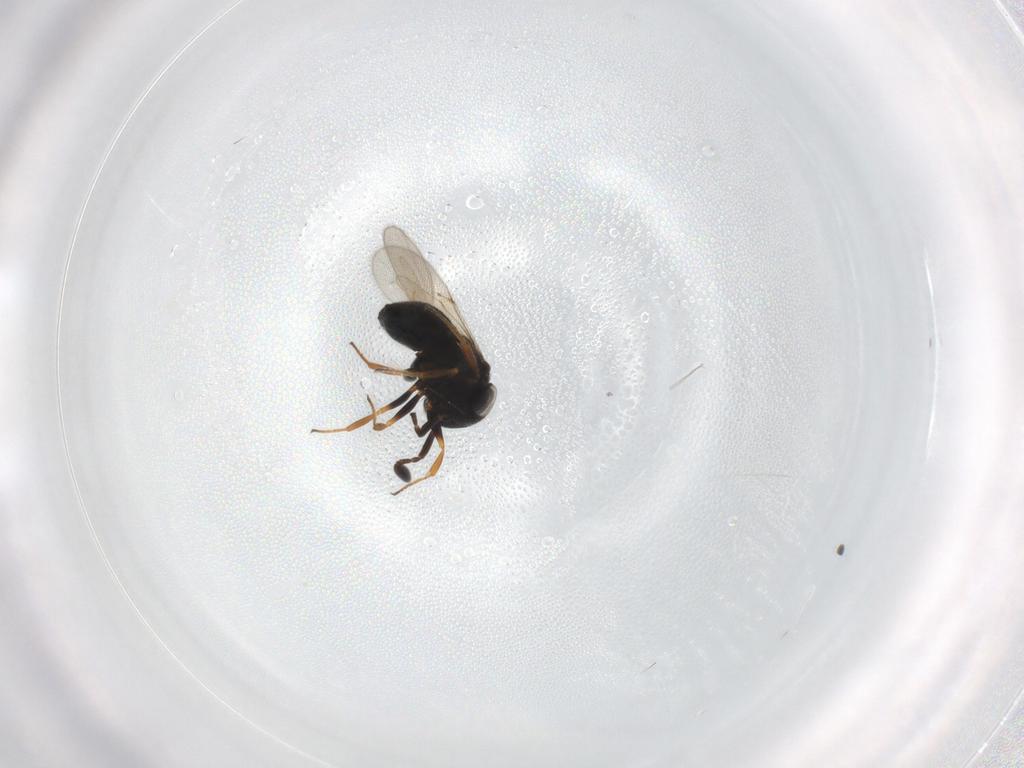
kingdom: Animalia
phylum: Arthropoda
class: Insecta
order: Hymenoptera
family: Scelionidae
